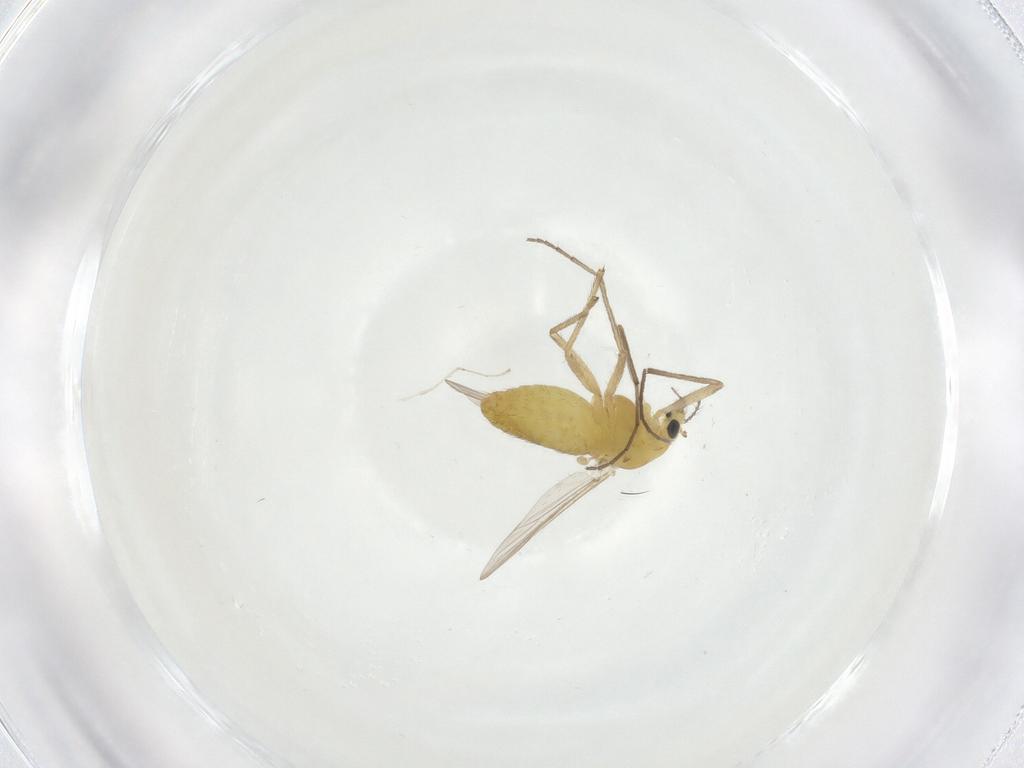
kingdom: Animalia
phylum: Arthropoda
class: Insecta
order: Diptera
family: Chironomidae
